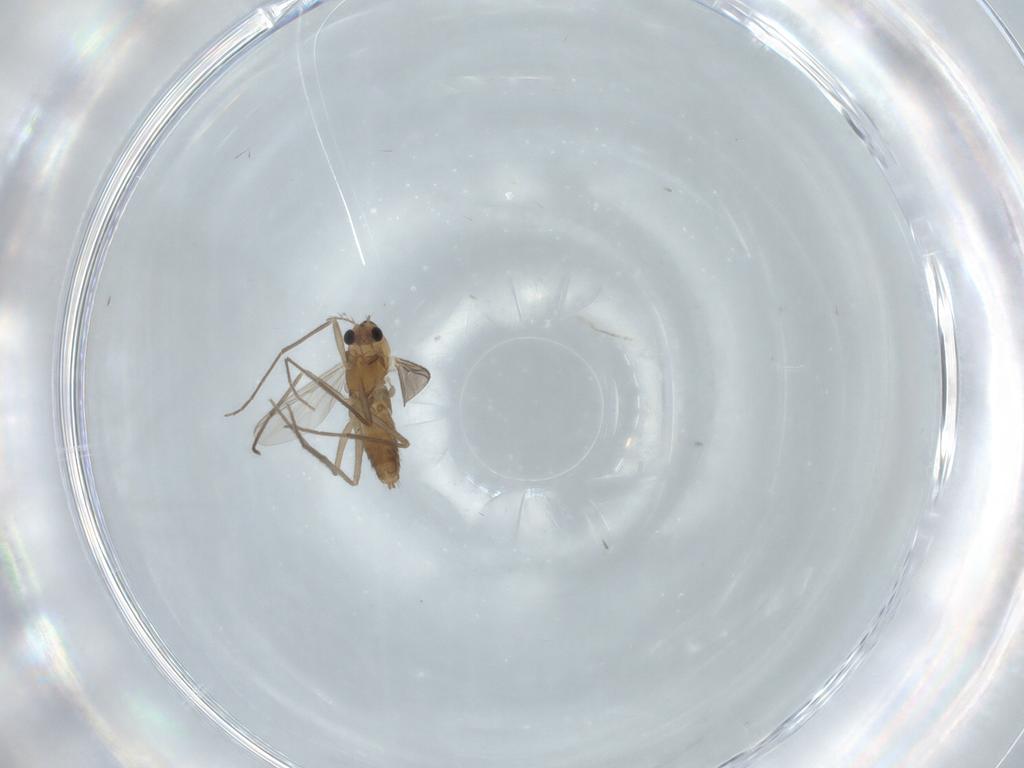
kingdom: Animalia
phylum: Arthropoda
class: Insecta
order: Diptera
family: Chironomidae
